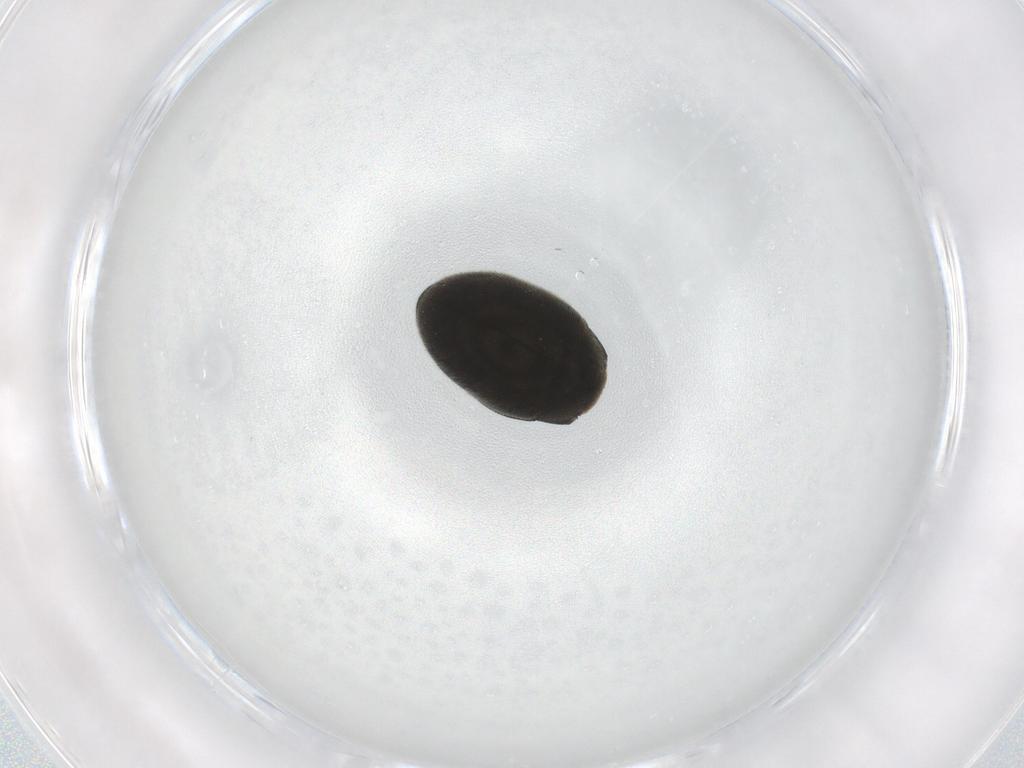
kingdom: Animalia
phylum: Arthropoda
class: Insecta
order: Coleoptera
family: Limnichidae
